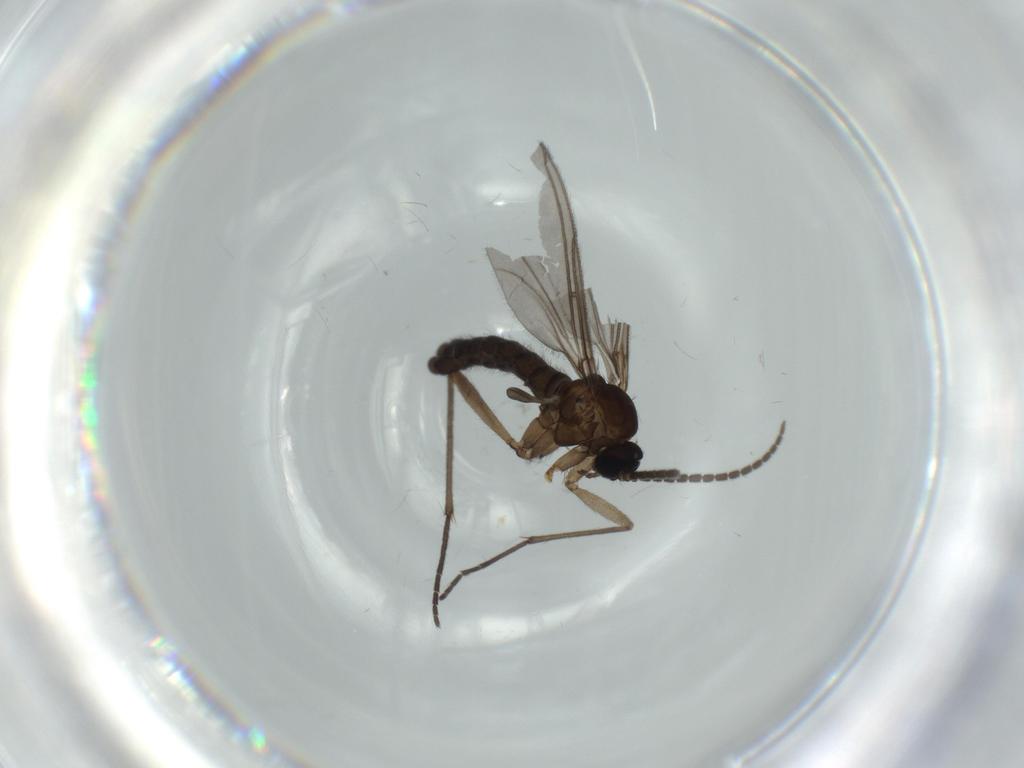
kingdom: Animalia
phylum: Arthropoda
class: Insecta
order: Diptera
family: Sciaridae
